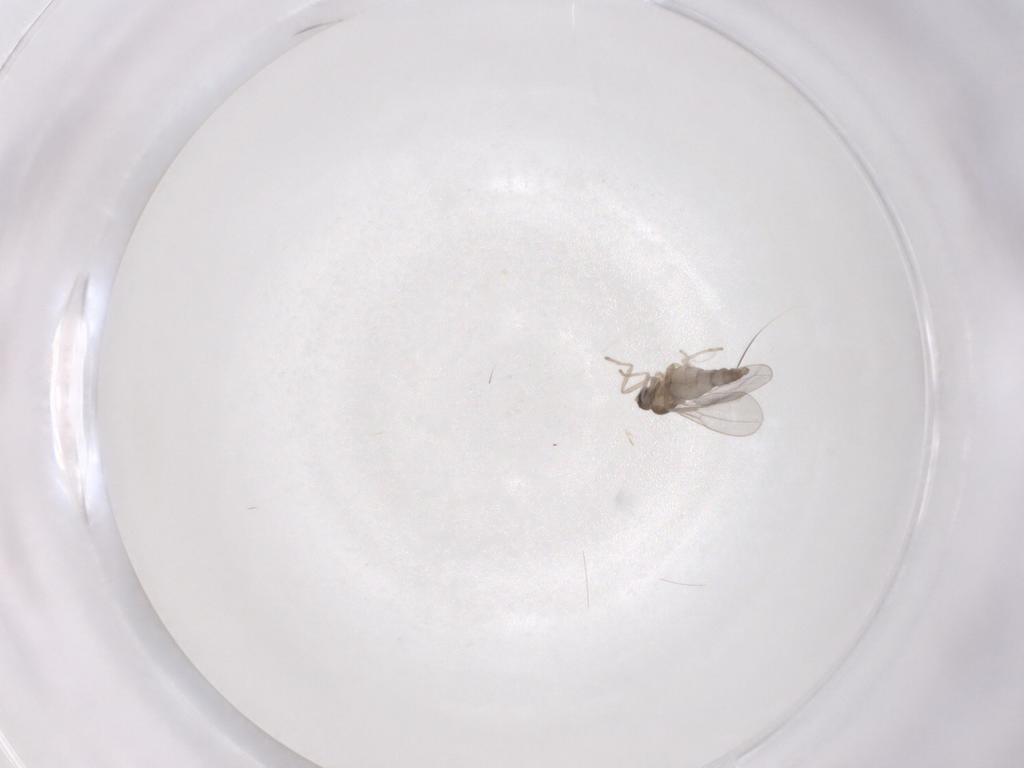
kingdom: Animalia
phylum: Arthropoda
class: Insecta
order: Diptera
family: Cecidomyiidae
